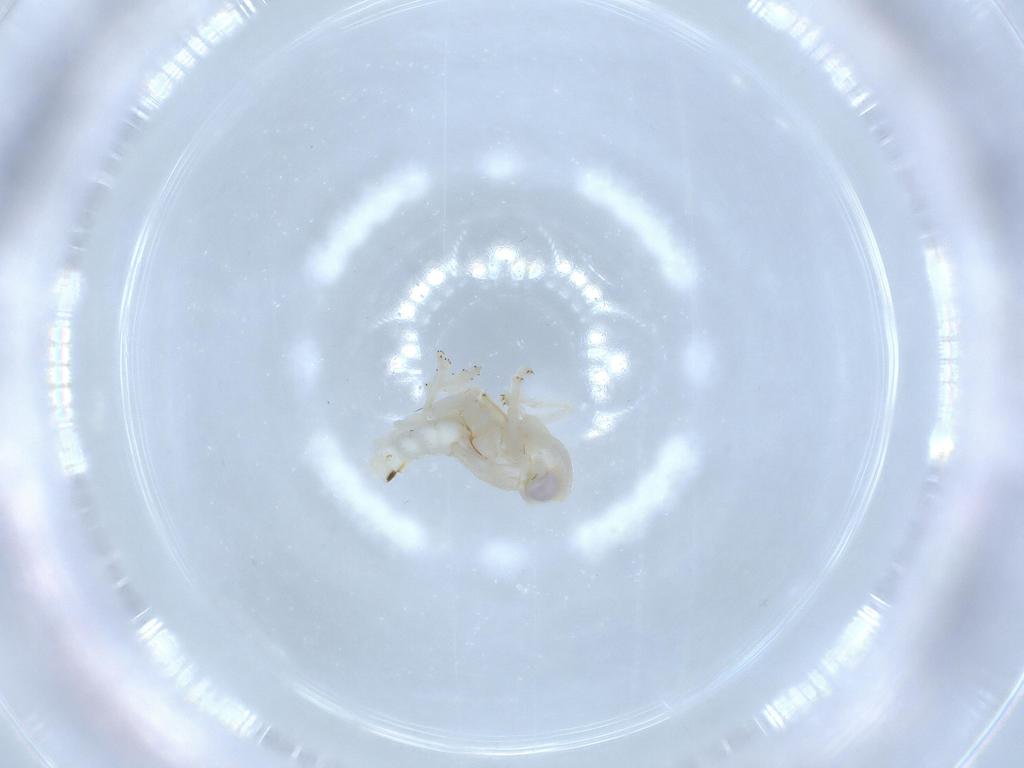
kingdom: Animalia
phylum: Arthropoda
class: Insecta
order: Hemiptera
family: Nogodinidae
